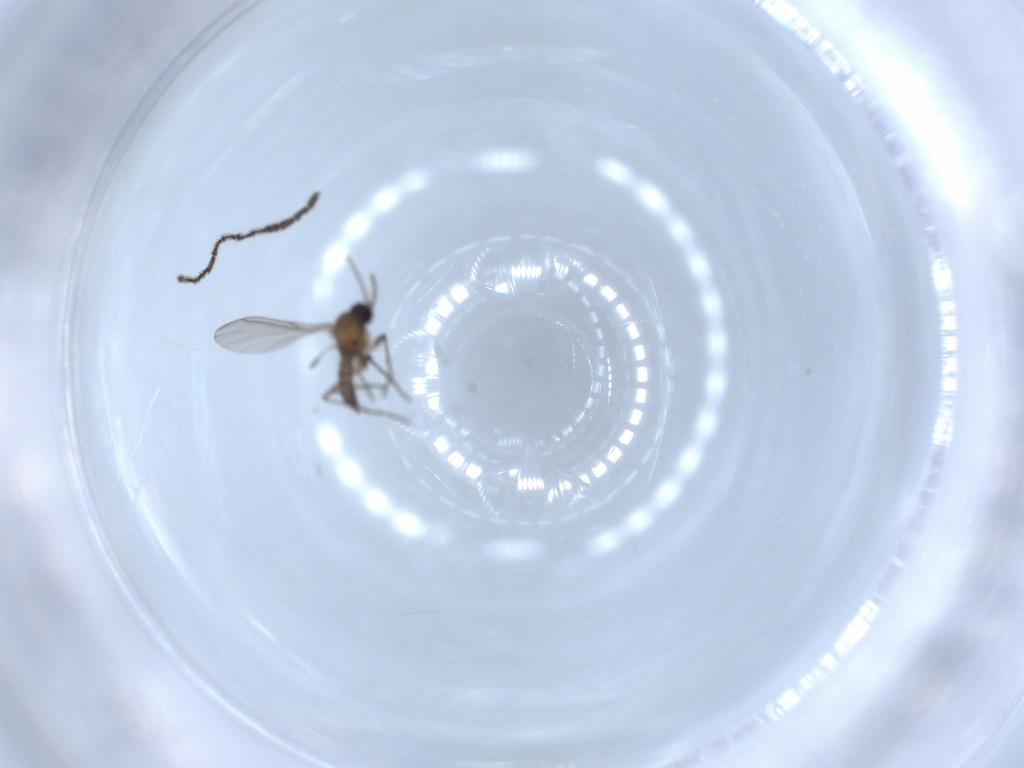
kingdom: Animalia
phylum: Arthropoda
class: Insecta
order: Diptera
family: Sciaridae
